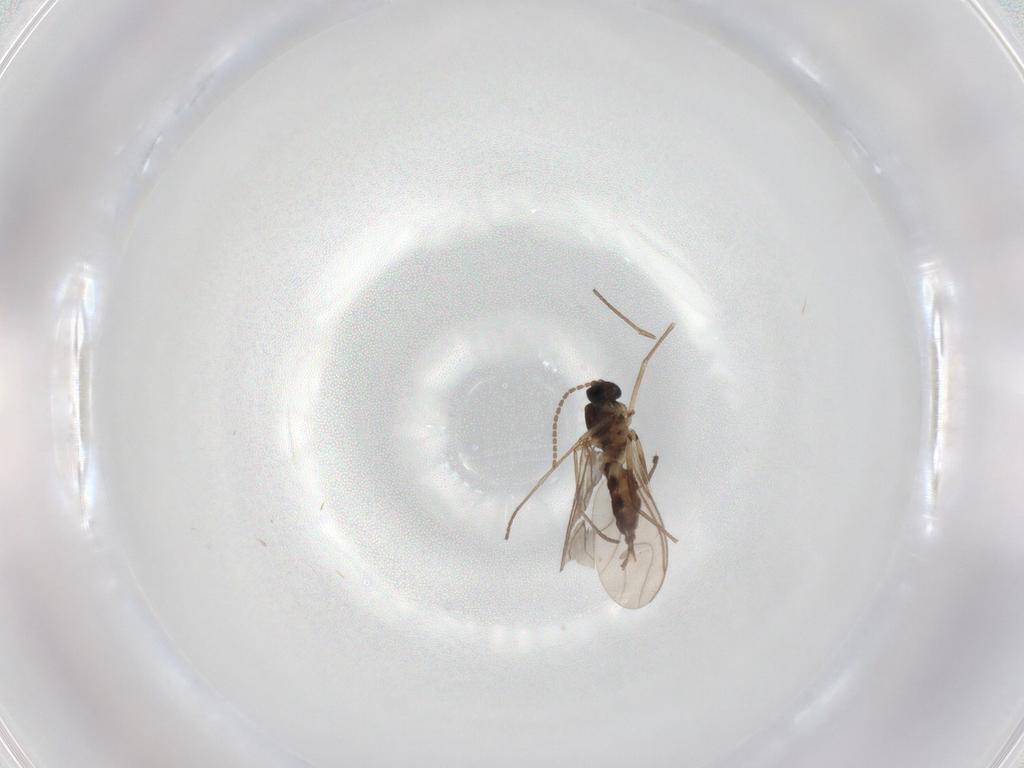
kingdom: Animalia
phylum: Arthropoda
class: Insecta
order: Diptera
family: Sciaridae
